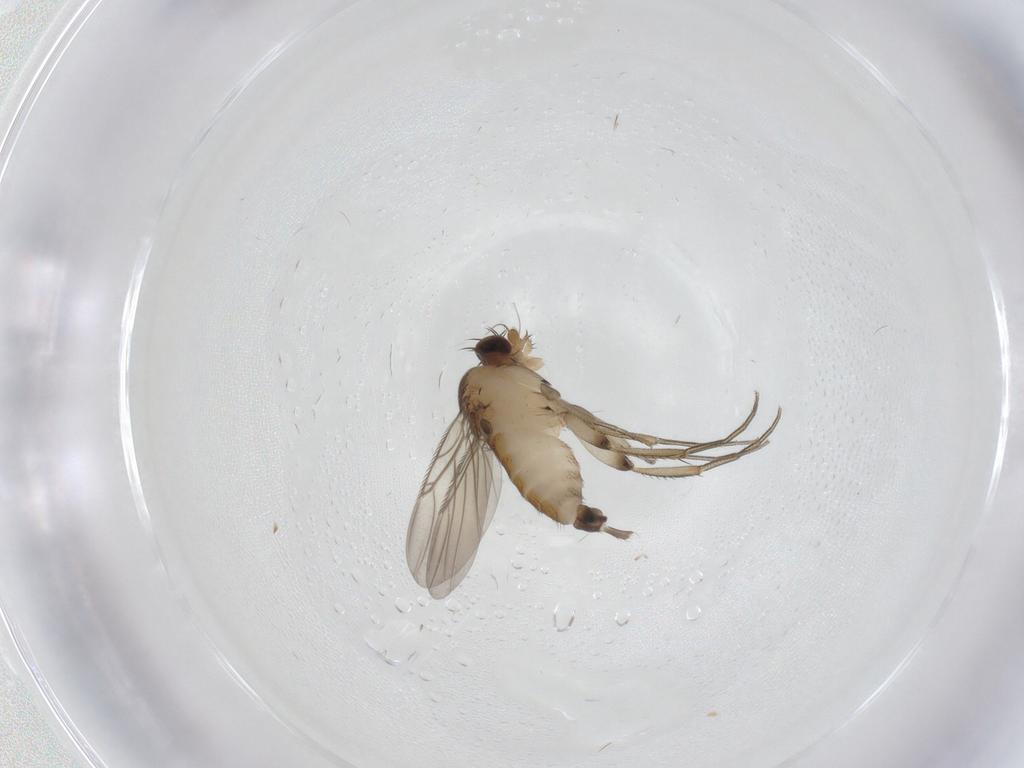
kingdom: Animalia
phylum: Arthropoda
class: Insecta
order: Diptera
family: Phoridae
